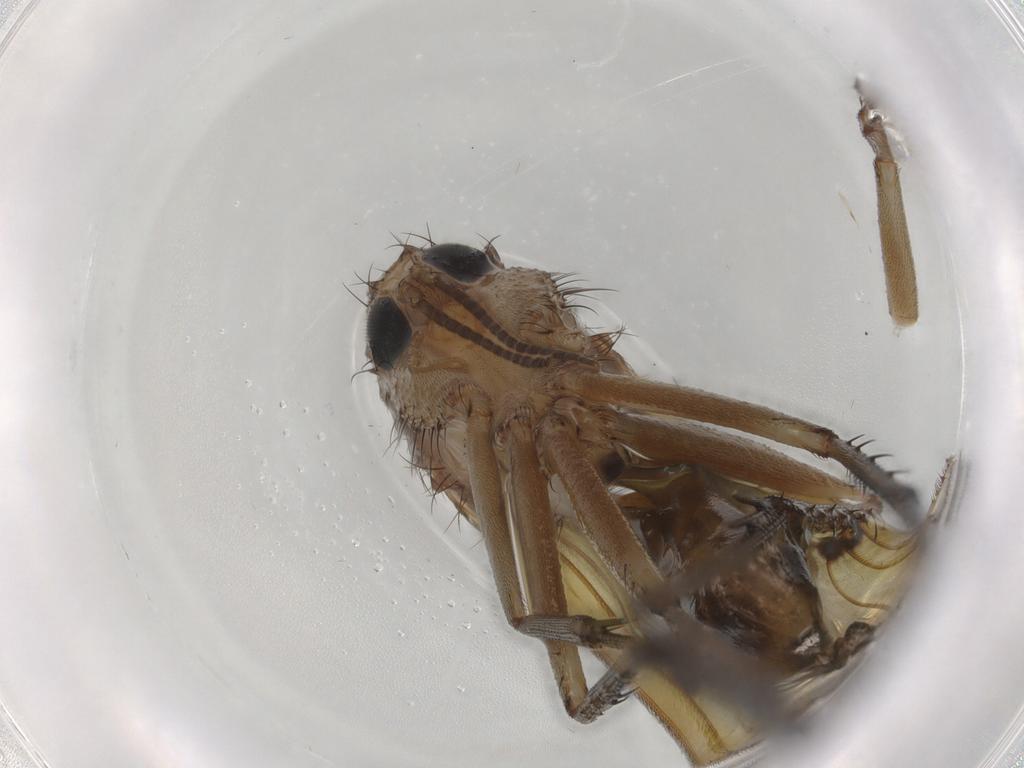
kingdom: Animalia
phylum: Arthropoda
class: Insecta
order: Diptera
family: Mycetophilidae
